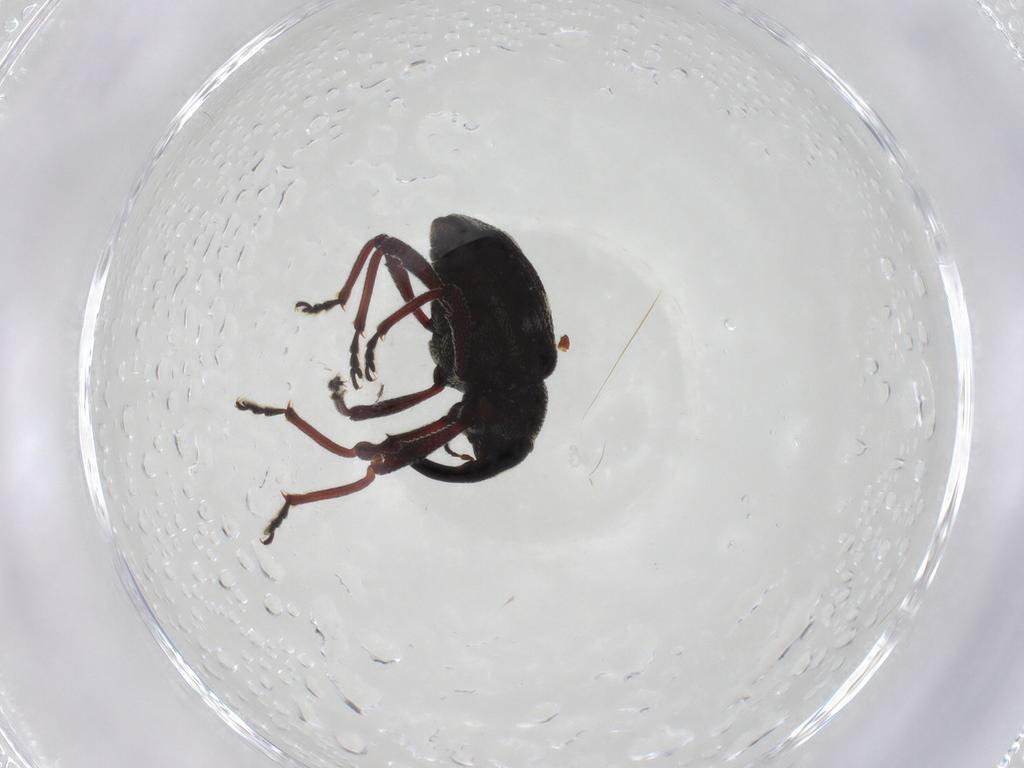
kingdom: Animalia
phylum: Arthropoda
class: Insecta
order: Coleoptera
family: Curculionidae
